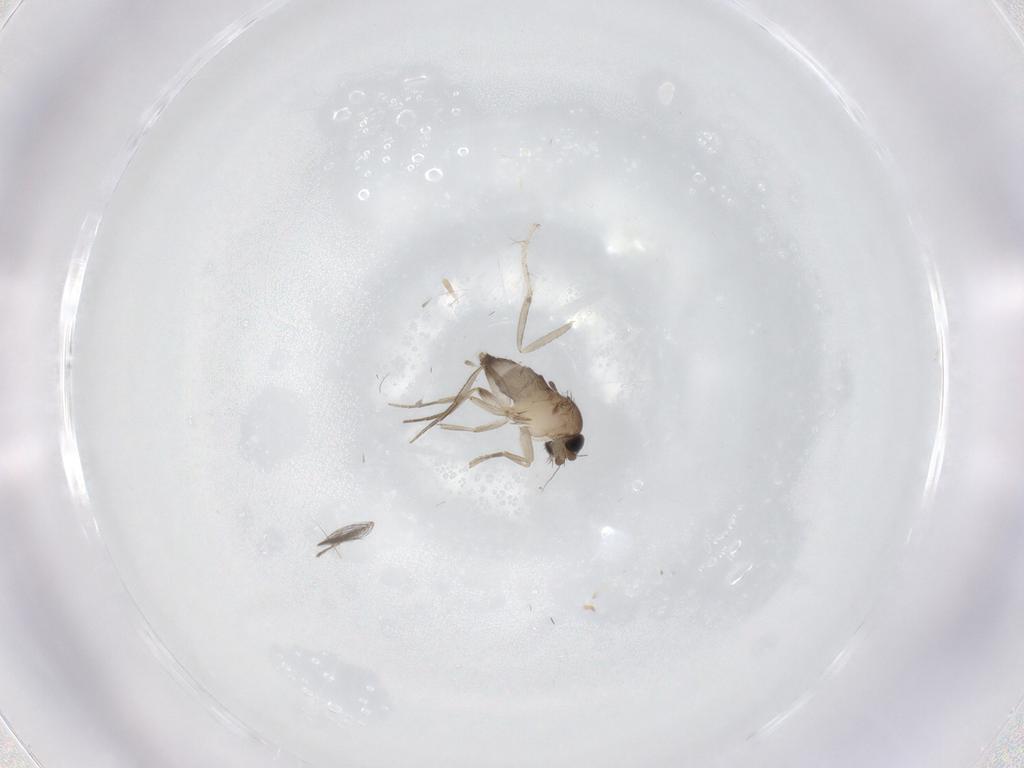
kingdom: Animalia
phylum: Arthropoda
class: Insecta
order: Diptera
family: Phoridae
